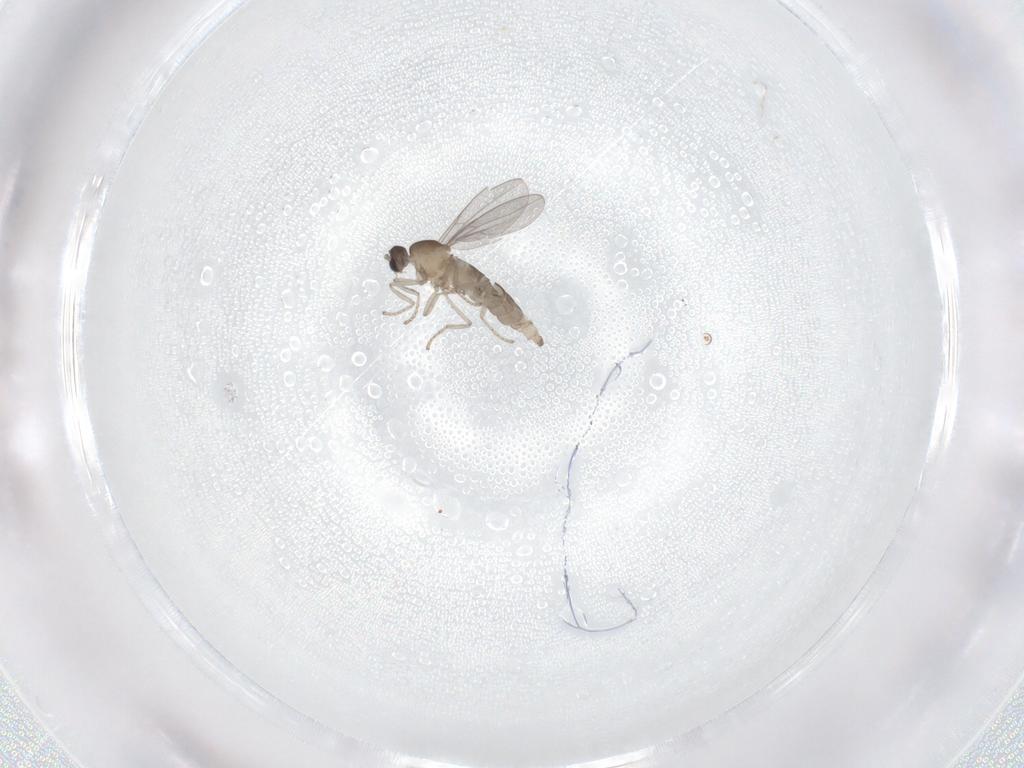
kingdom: Animalia
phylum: Arthropoda
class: Insecta
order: Diptera
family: Cecidomyiidae
